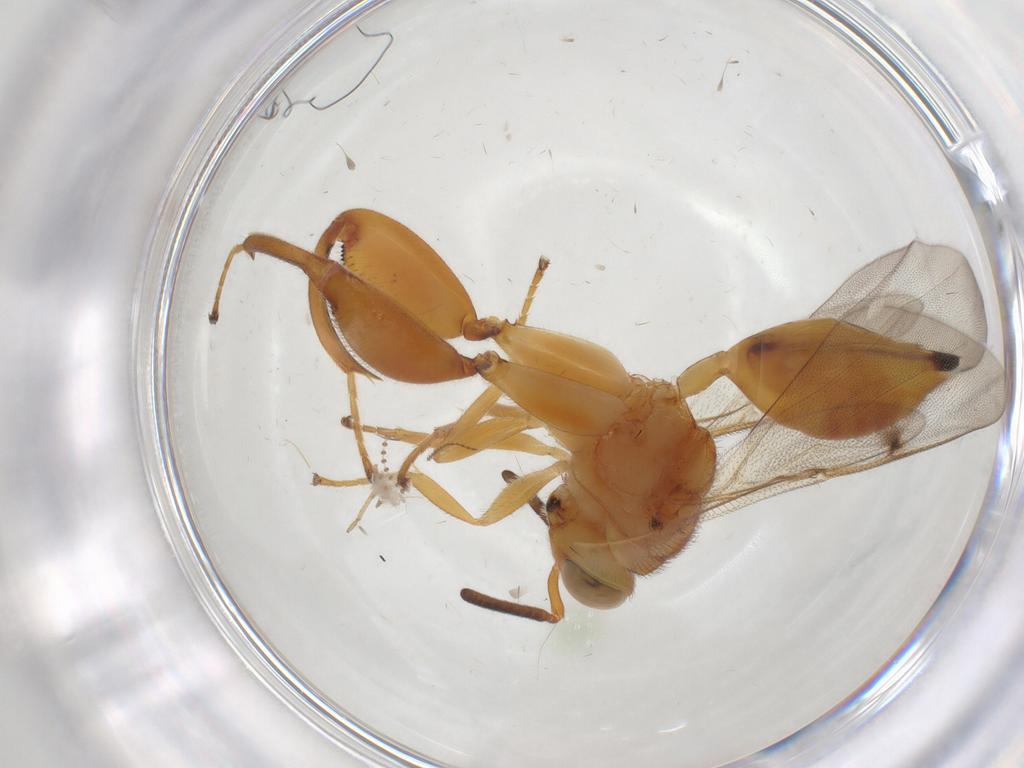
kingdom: Animalia
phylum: Arthropoda
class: Insecta
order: Hymenoptera
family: Chalcididae
